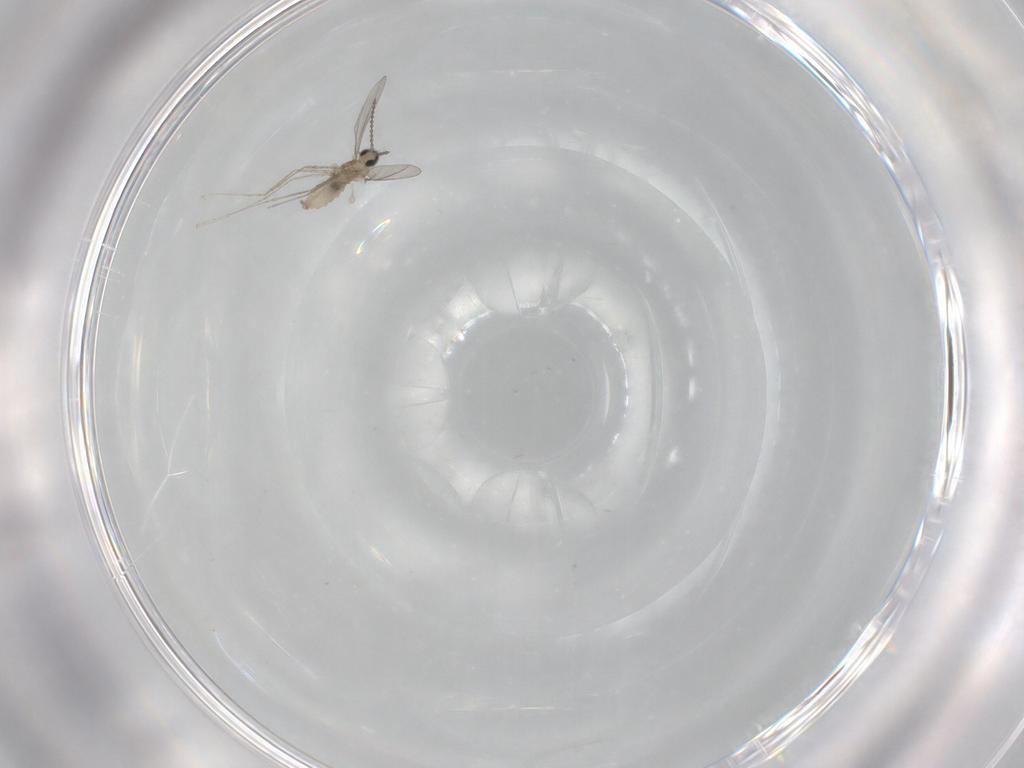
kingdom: Animalia
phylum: Arthropoda
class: Insecta
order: Diptera
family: Cecidomyiidae
